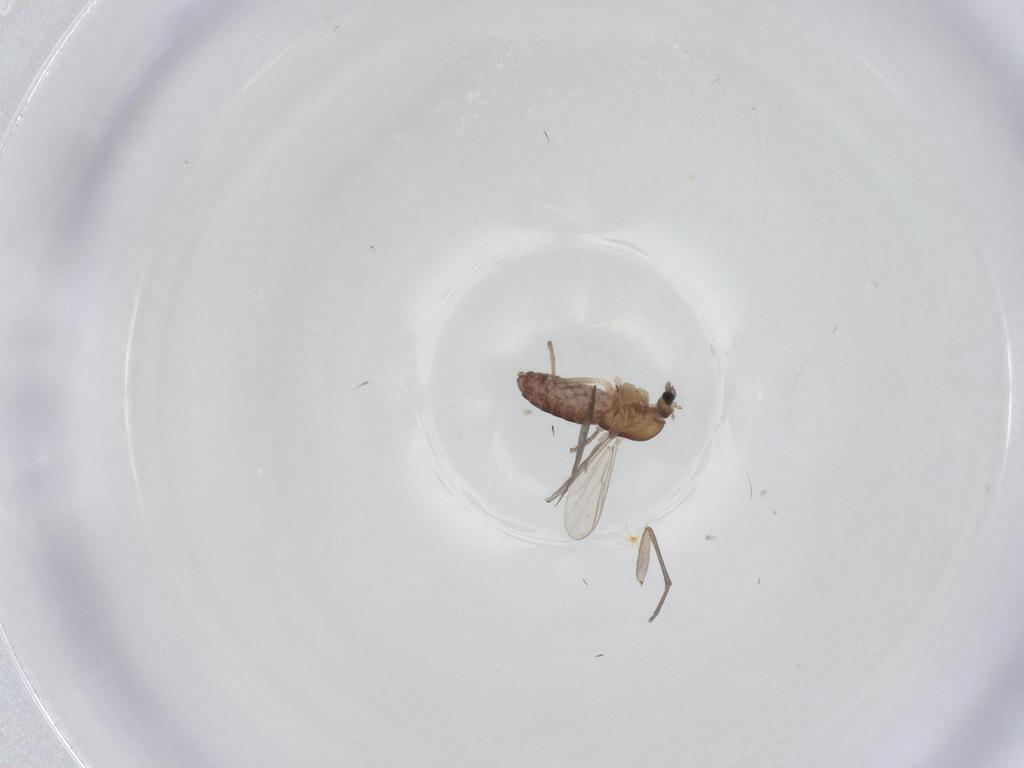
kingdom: Animalia
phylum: Arthropoda
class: Insecta
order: Diptera
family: Chironomidae
